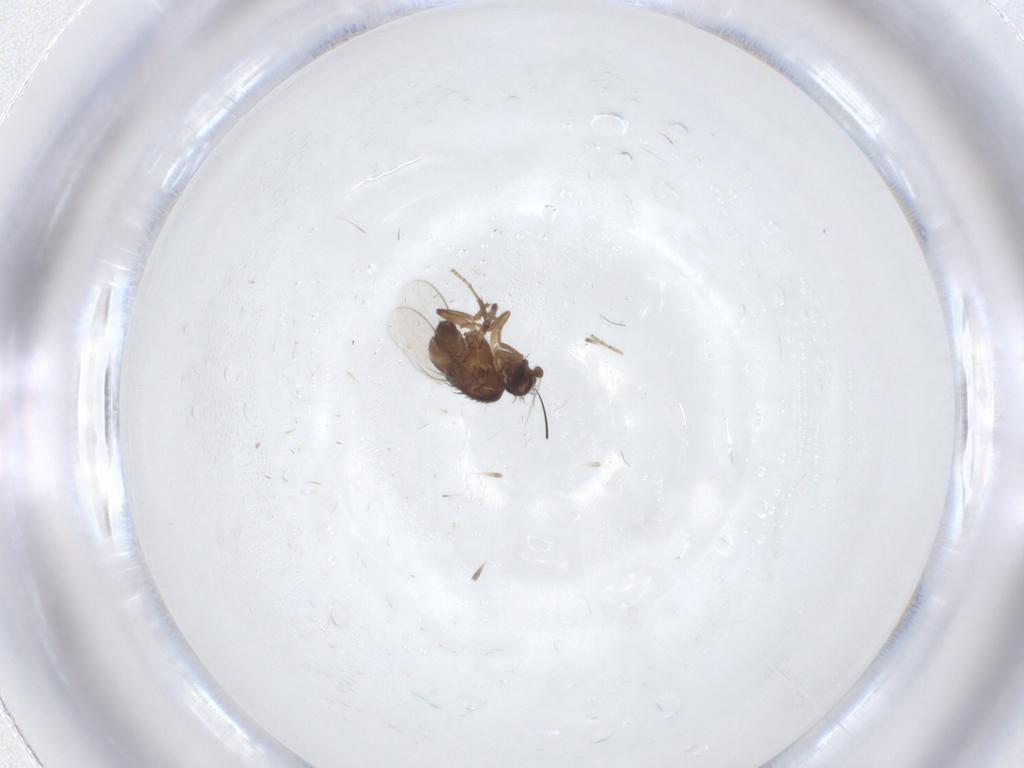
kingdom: Animalia
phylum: Arthropoda
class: Insecta
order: Diptera
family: Sphaeroceridae
